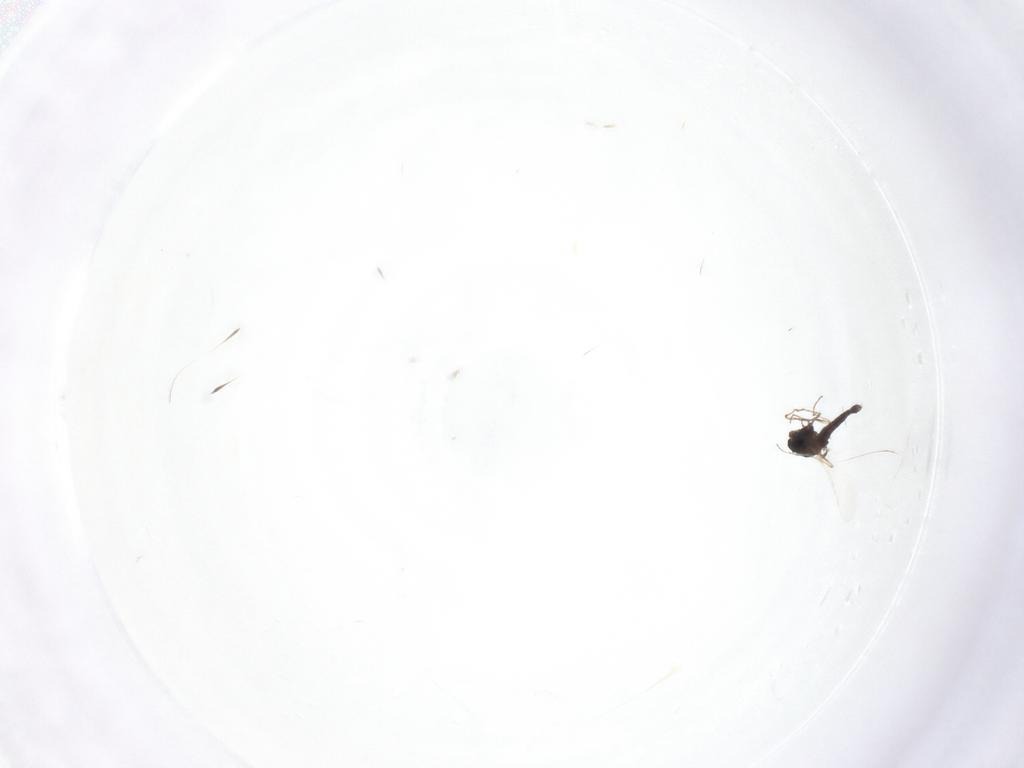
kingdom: Animalia
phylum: Arthropoda
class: Insecta
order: Diptera
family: Chironomidae
